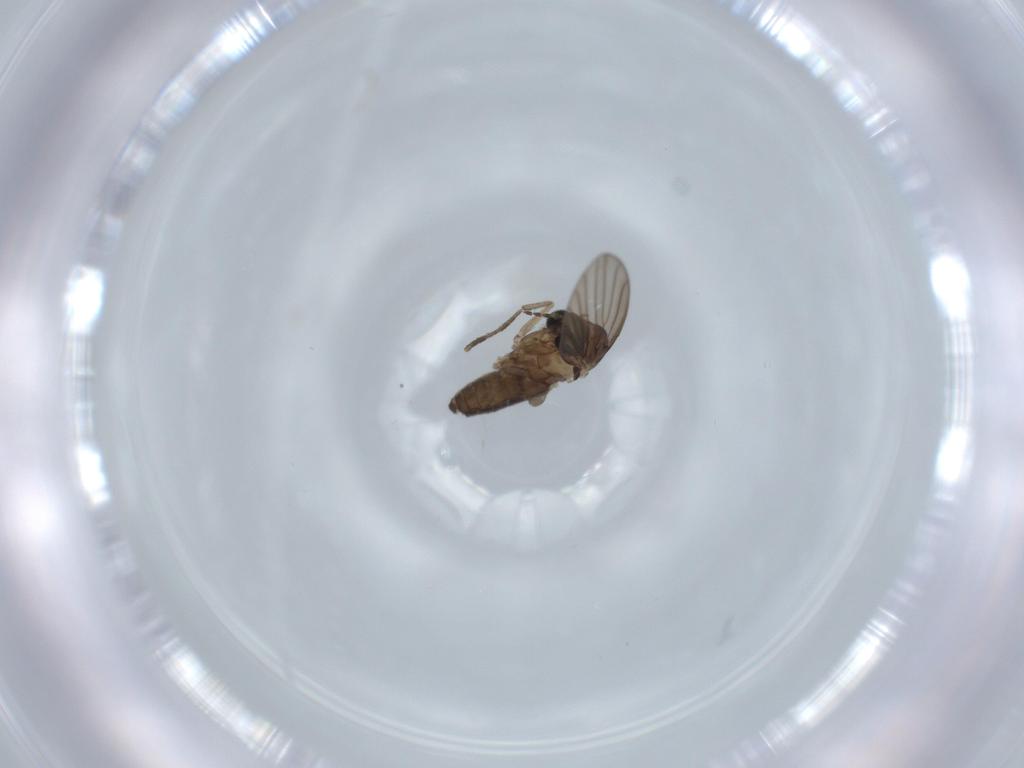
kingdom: Animalia
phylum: Arthropoda
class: Insecta
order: Diptera
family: Psychodidae
